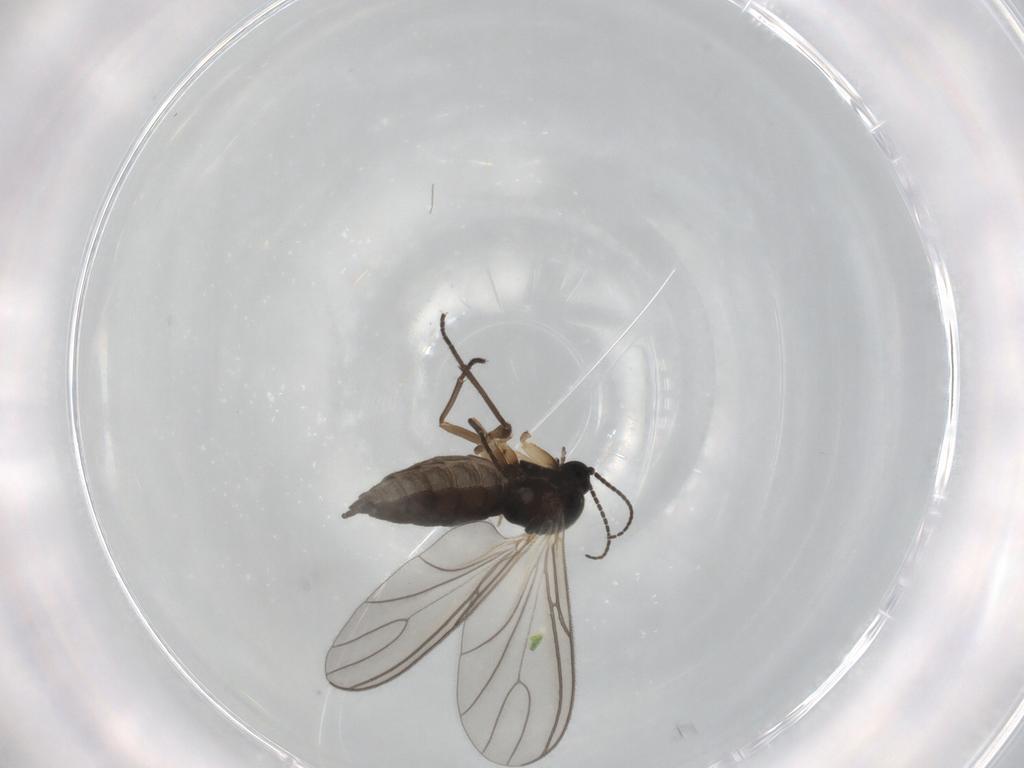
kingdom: Animalia
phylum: Arthropoda
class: Insecta
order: Diptera
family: Sciaridae
